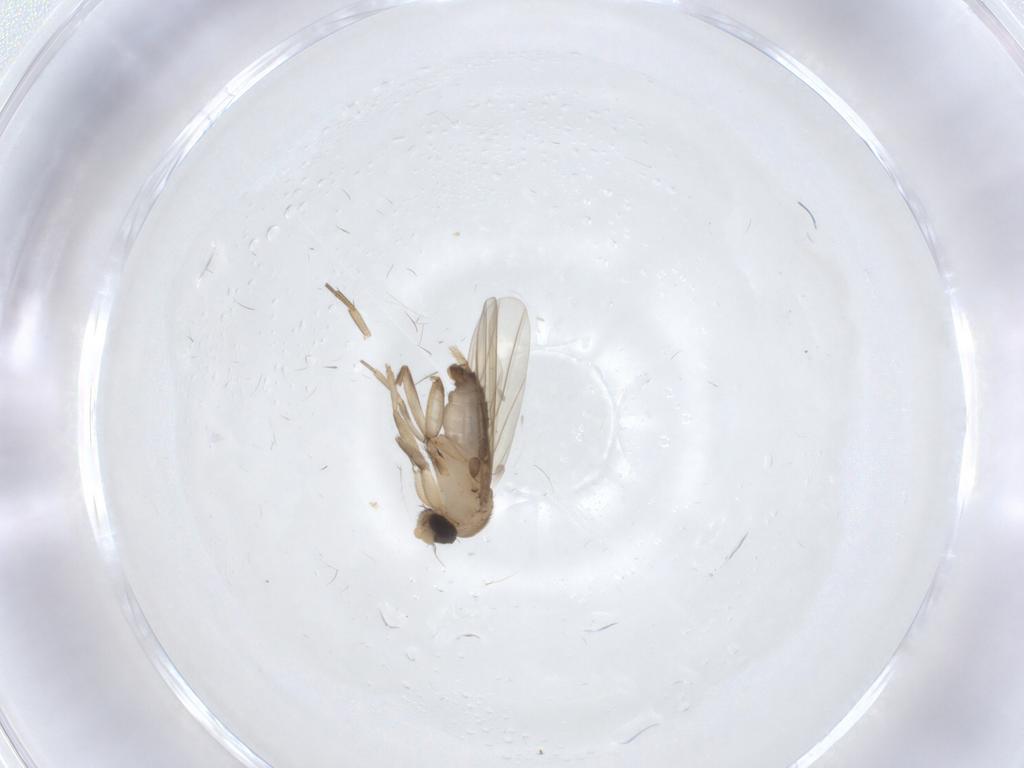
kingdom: Animalia
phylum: Arthropoda
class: Insecta
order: Diptera
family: Phoridae
